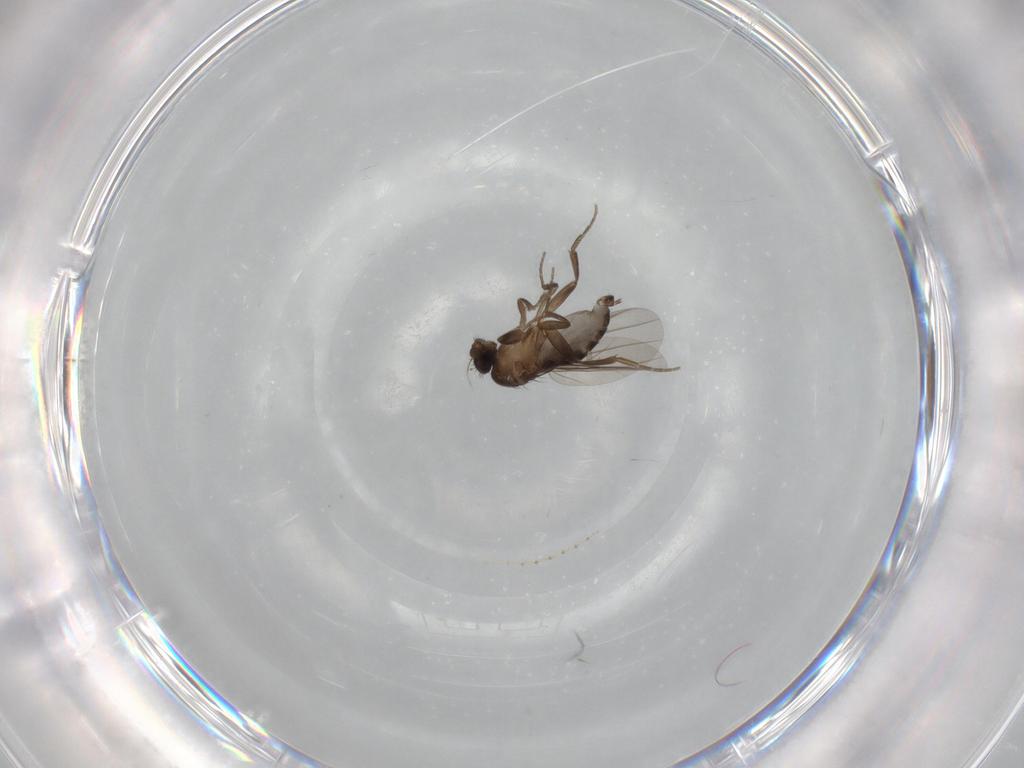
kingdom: Animalia
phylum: Arthropoda
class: Insecta
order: Diptera
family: Phoridae
